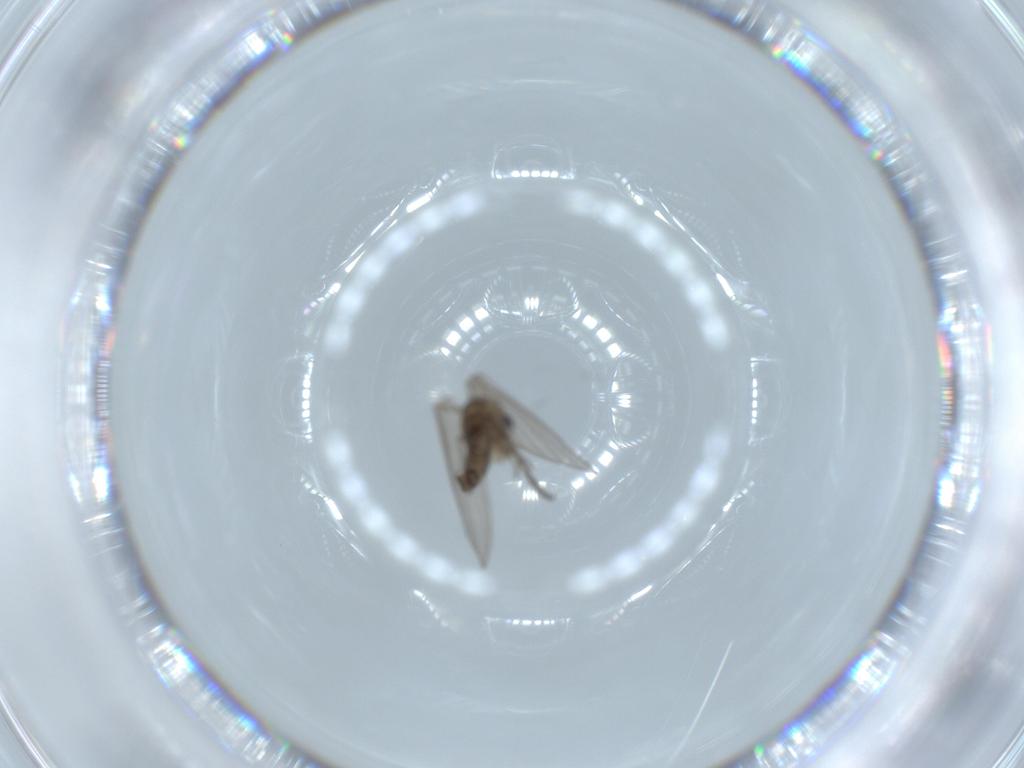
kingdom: Animalia
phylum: Arthropoda
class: Insecta
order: Diptera
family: Psychodidae
